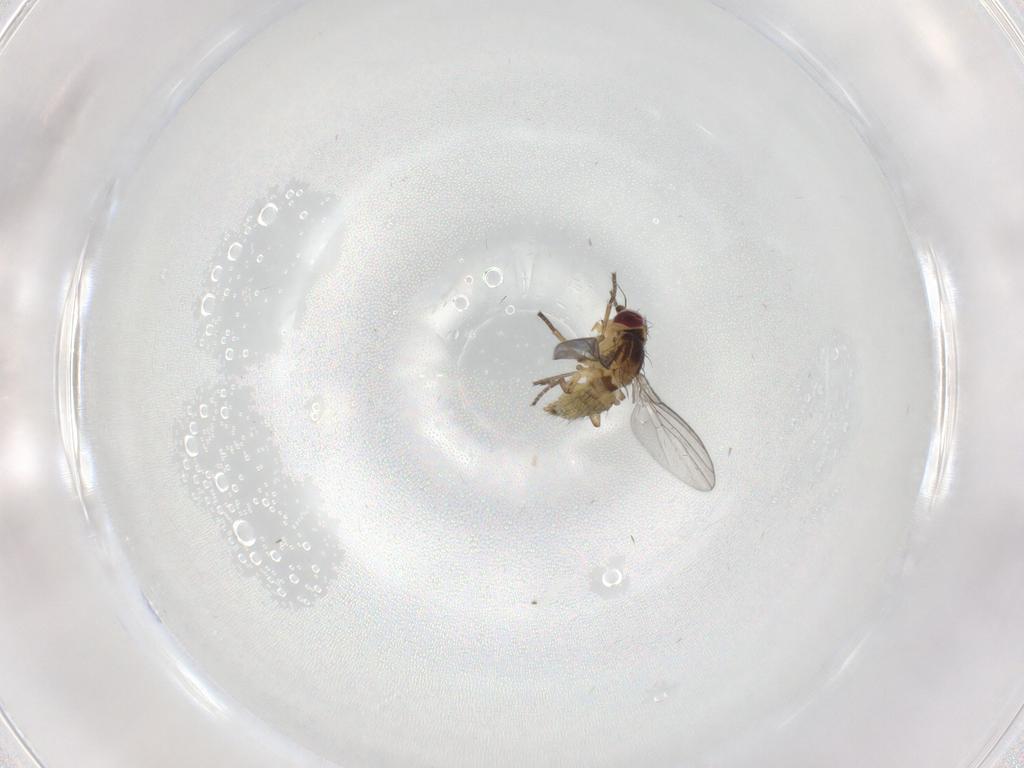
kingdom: Animalia
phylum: Arthropoda
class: Insecta
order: Diptera
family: Agromyzidae
